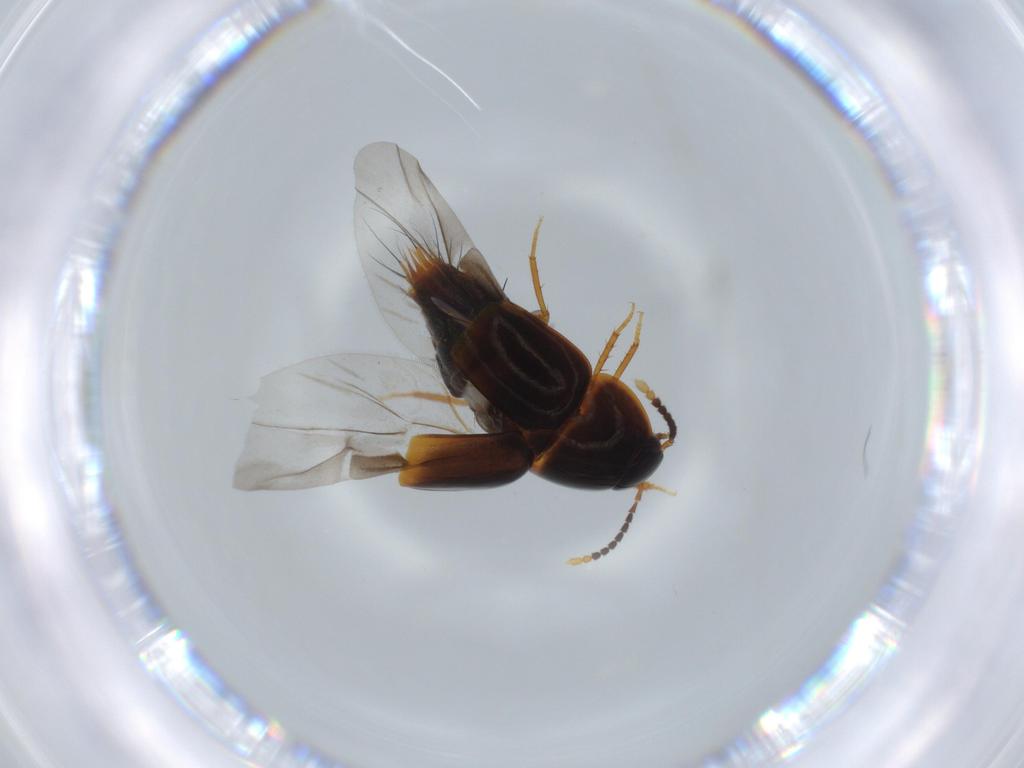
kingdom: Animalia
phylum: Arthropoda
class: Insecta
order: Coleoptera
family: Staphylinidae
